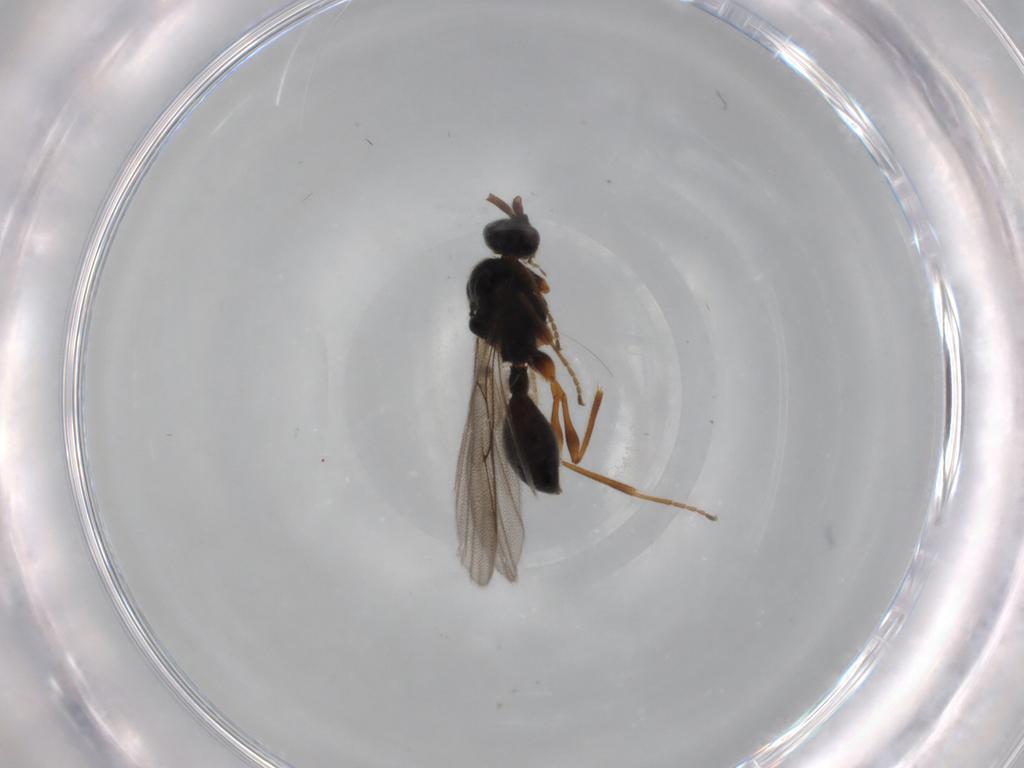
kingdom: Animalia
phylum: Arthropoda
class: Insecta
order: Hymenoptera
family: Diapriidae
